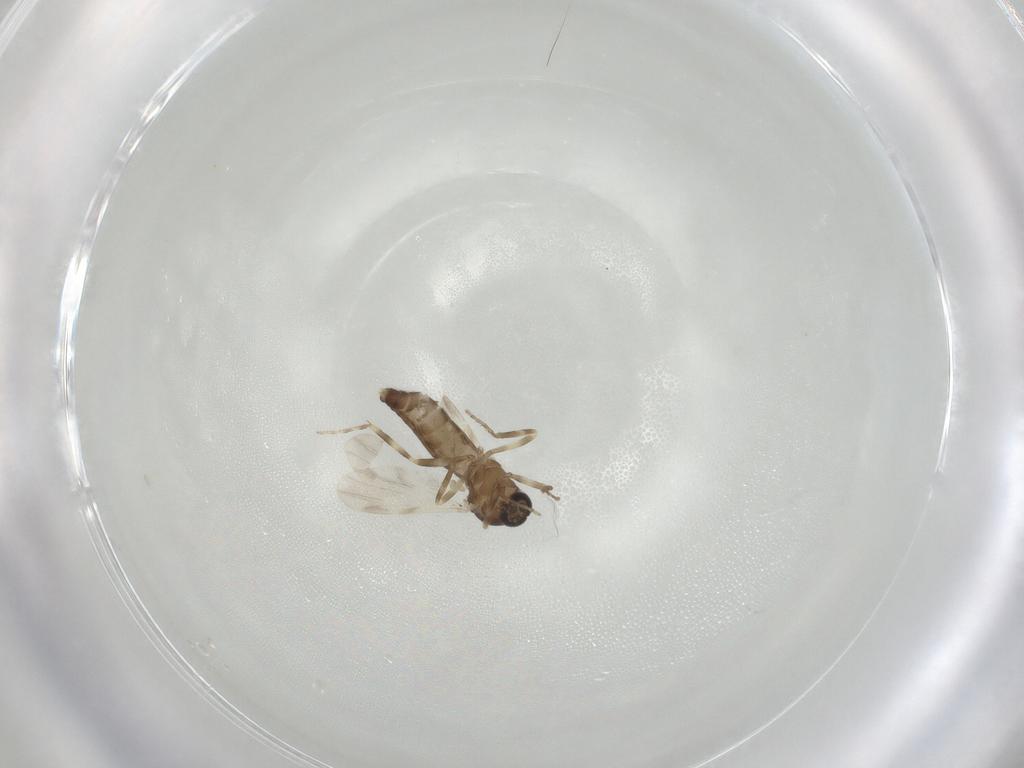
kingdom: Animalia
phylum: Arthropoda
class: Insecta
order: Diptera
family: Ceratopogonidae
